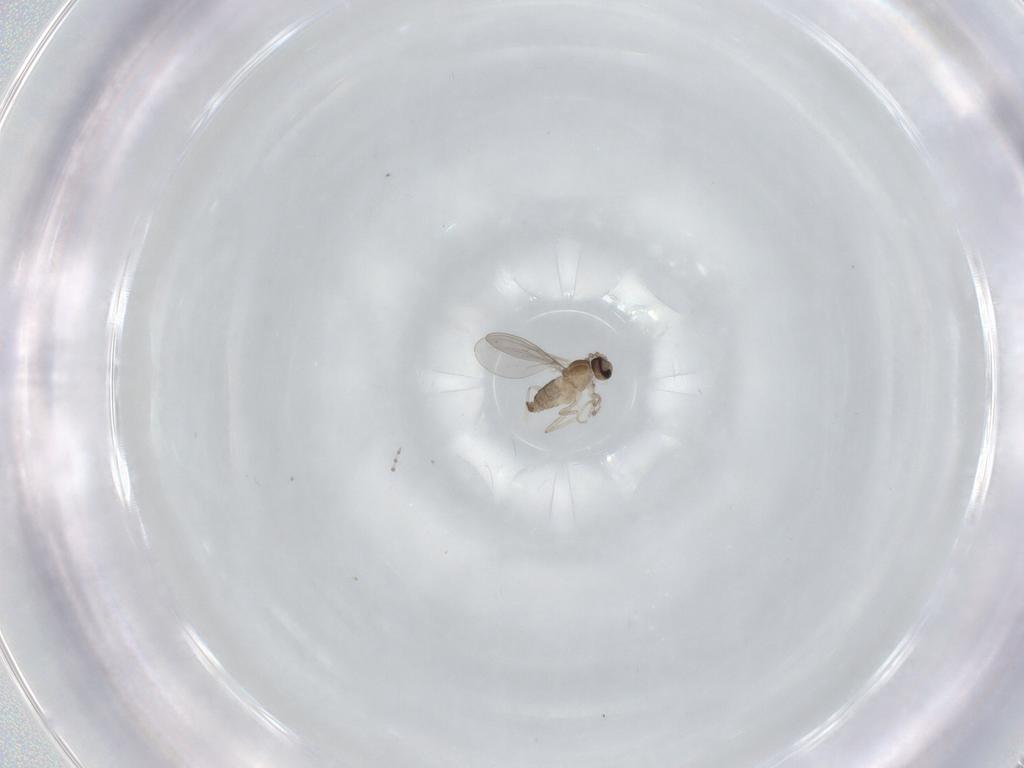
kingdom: Animalia
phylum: Arthropoda
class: Insecta
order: Diptera
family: Cecidomyiidae
